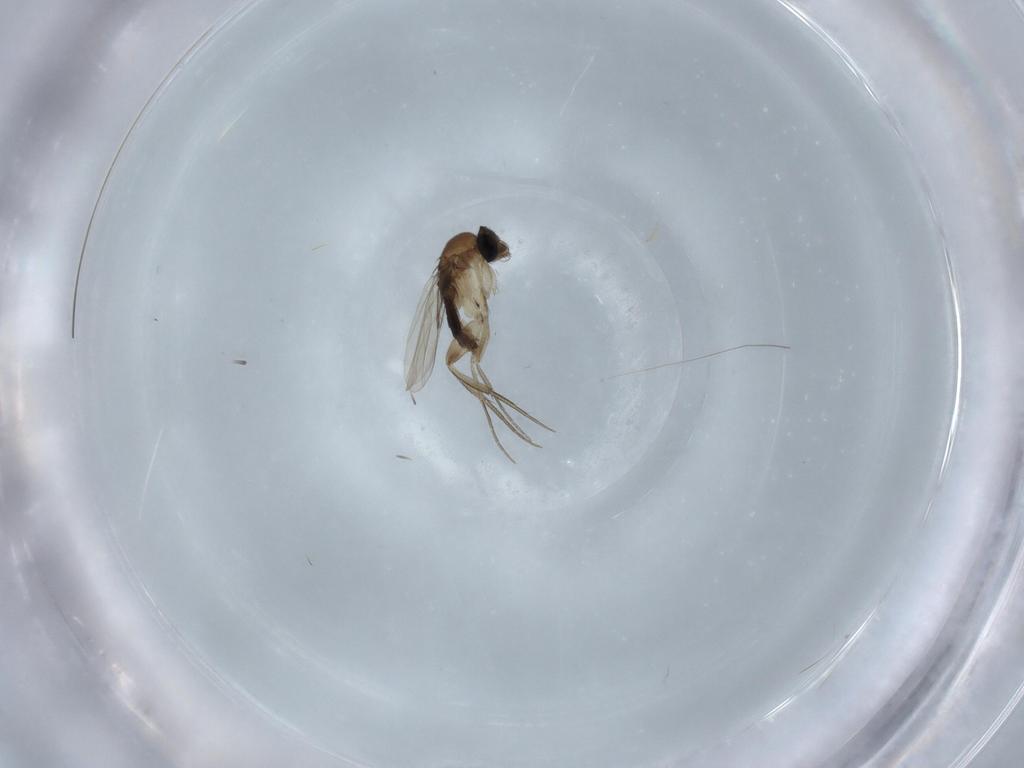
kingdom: Animalia
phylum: Arthropoda
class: Insecta
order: Diptera
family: Phoridae
